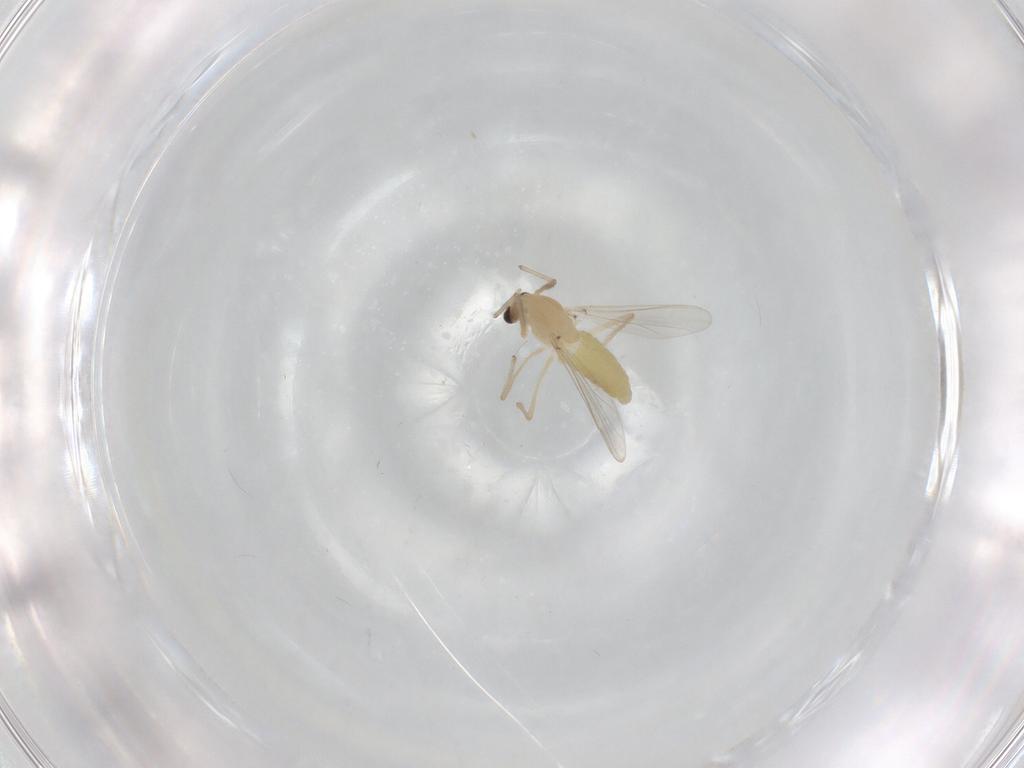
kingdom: Animalia
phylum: Arthropoda
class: Insecta
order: Diptera
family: Chironomidae
